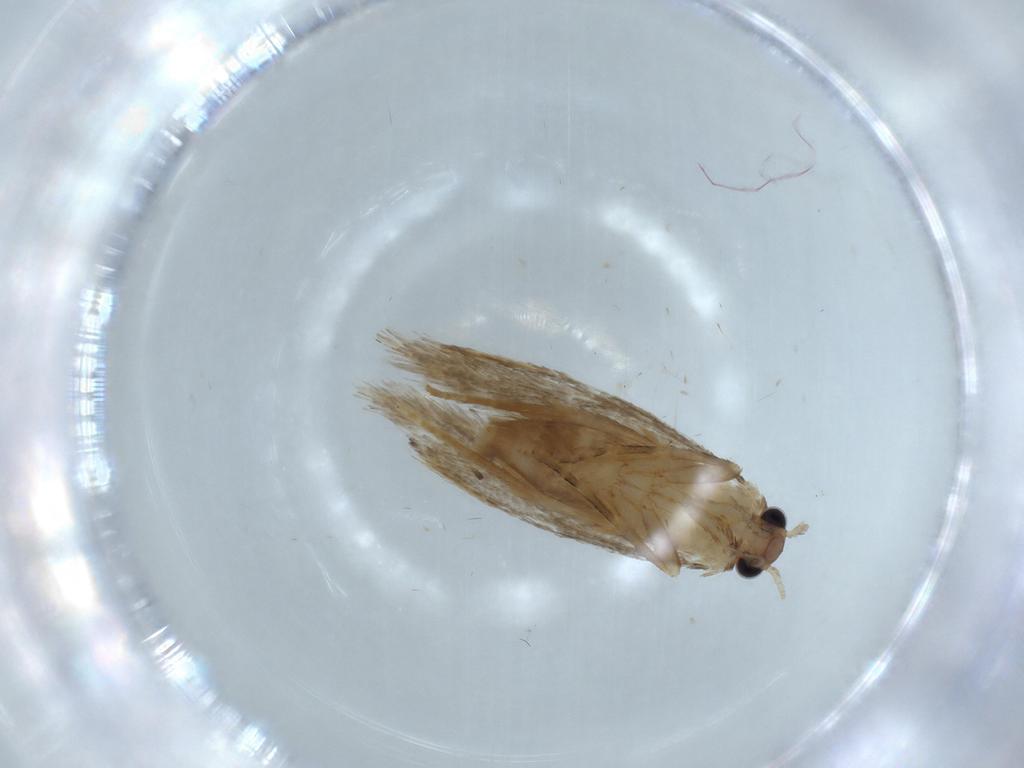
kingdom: Animalia
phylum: Arthropoda
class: Insecta
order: Lepidoptera
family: Tineidae
